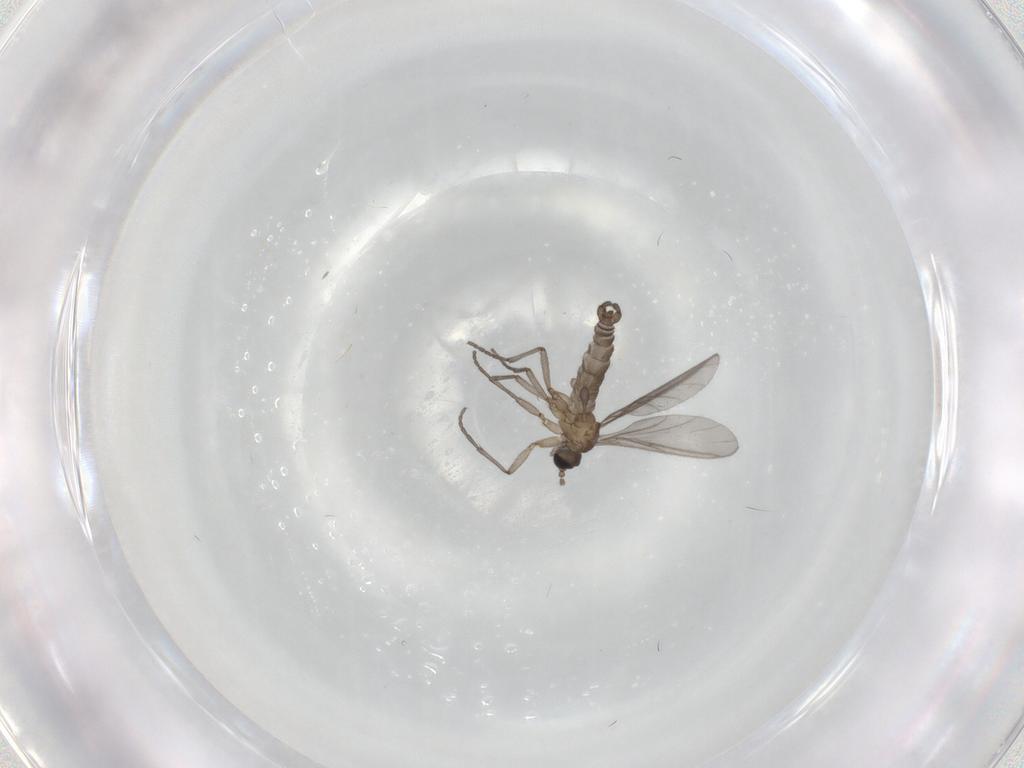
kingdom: Animalia
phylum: Arthropoda
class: Insecta
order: Diptera
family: Sciaridae
